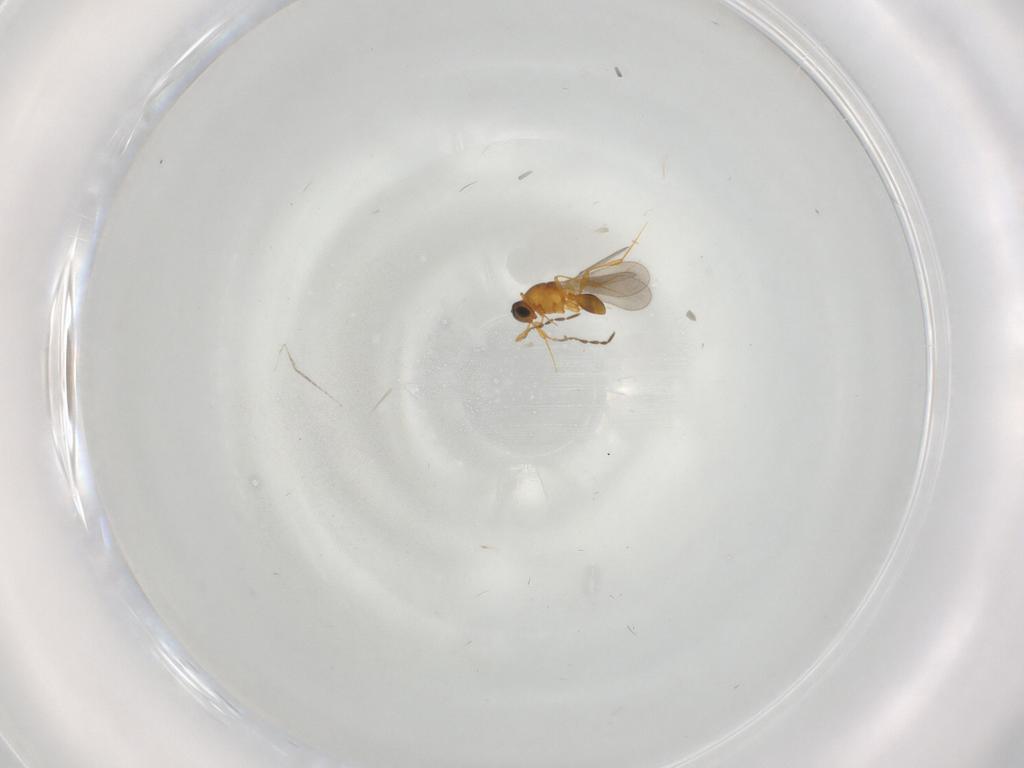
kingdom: Animalia
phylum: Arthropoda
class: Insecta
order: Hymenoptera
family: Platygastridae
